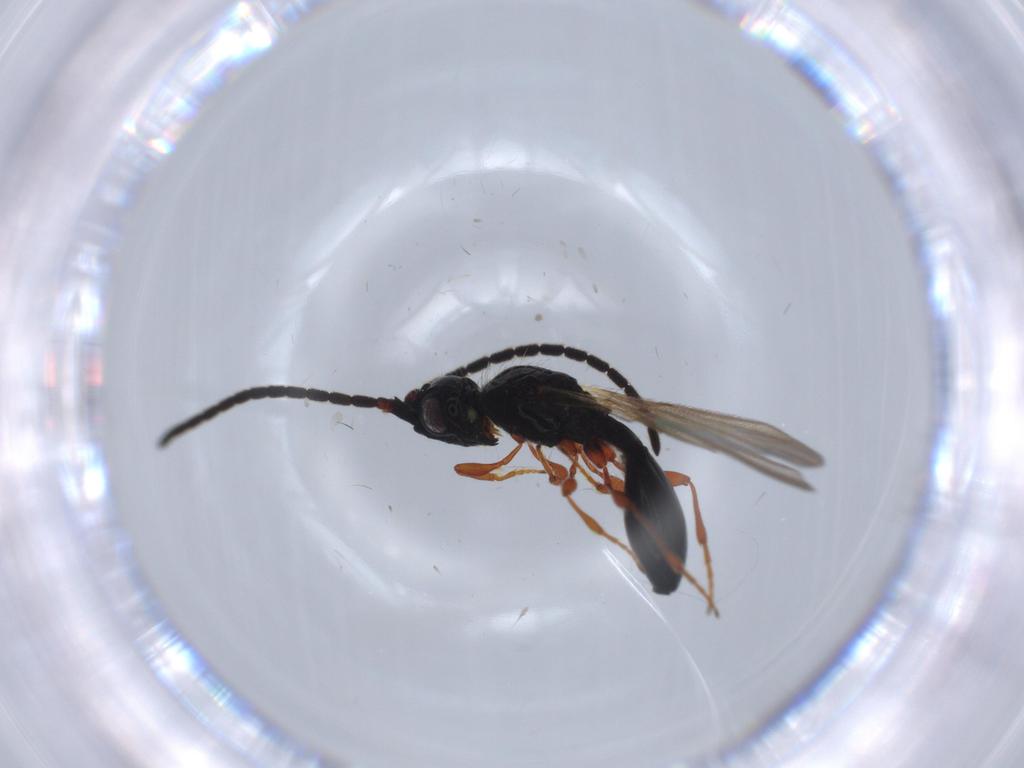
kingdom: Animalia
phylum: Arthropoda
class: Insecta
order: Hymenoptera
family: Diapriidae
